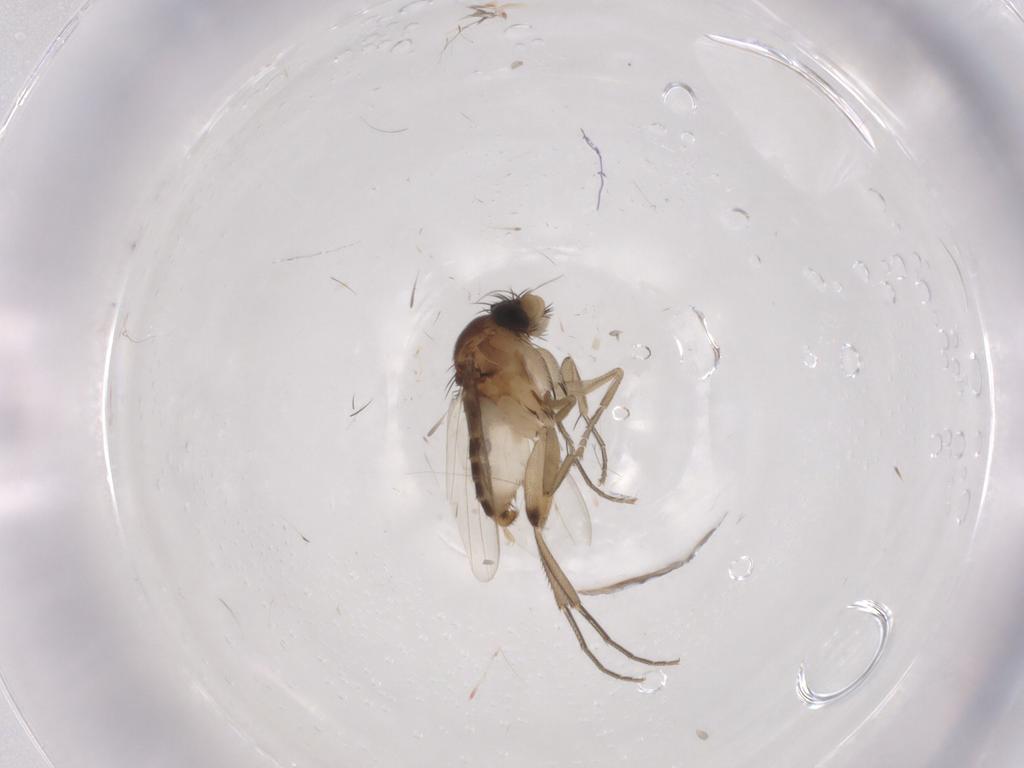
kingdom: Animalia
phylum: Arthropoda
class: Insecta
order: Diptera
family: Phoridae
